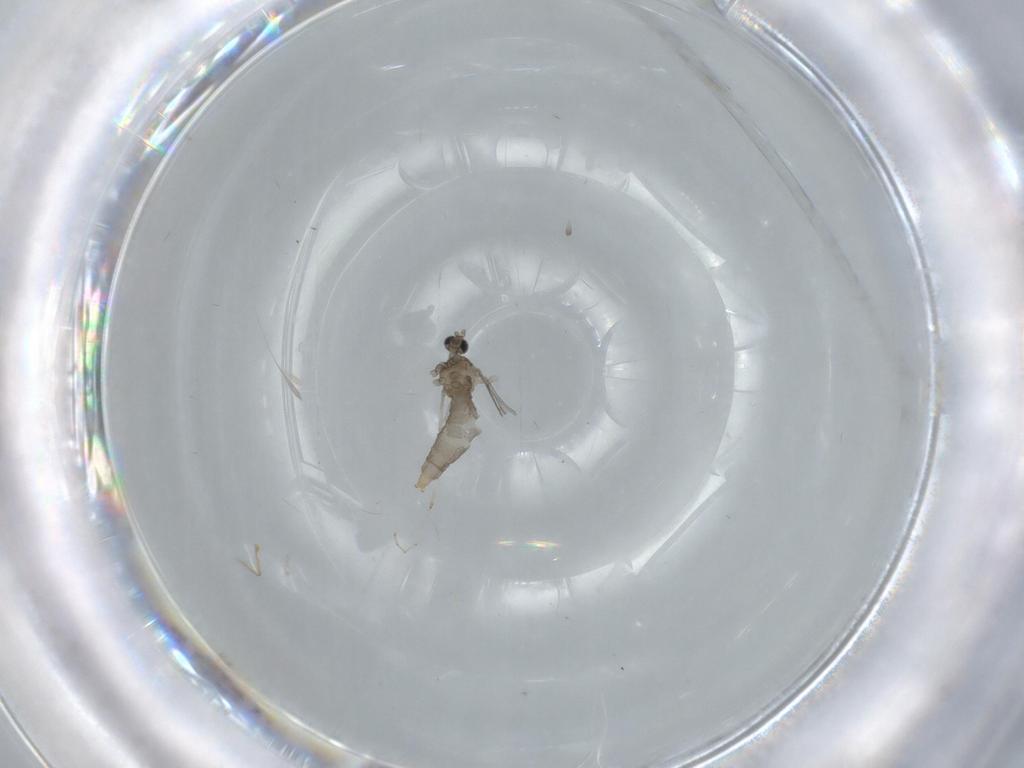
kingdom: Animalia
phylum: Arthropoda
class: Insecta
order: Diptera
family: Cecidomyiidae
